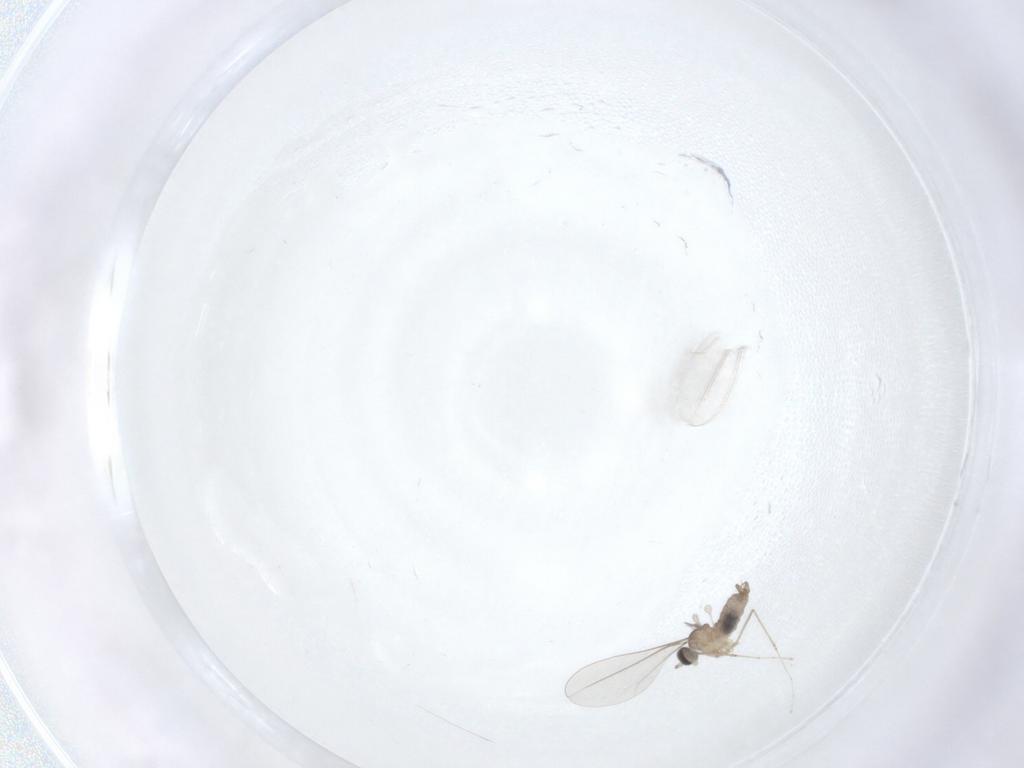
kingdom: Animalia
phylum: Arthropoda
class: Insecta
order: Diptera
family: Cecidomyiidae
